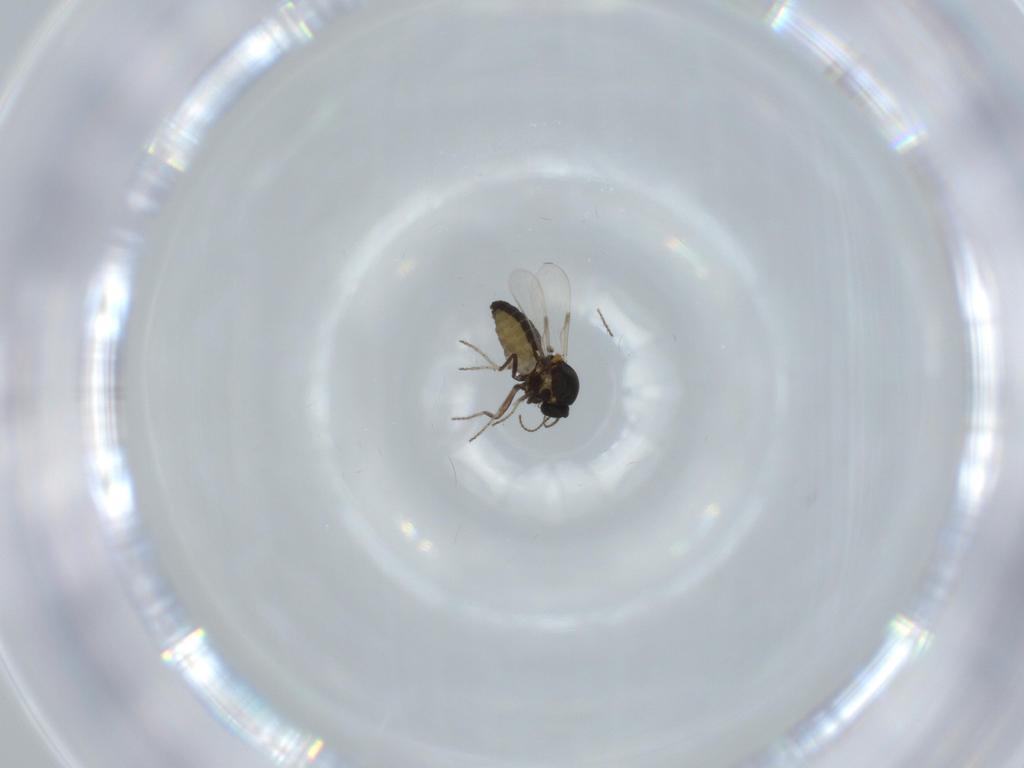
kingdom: Animalia
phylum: Arthropoda
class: Insecta
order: Diptera
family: Ceratopogonidae
